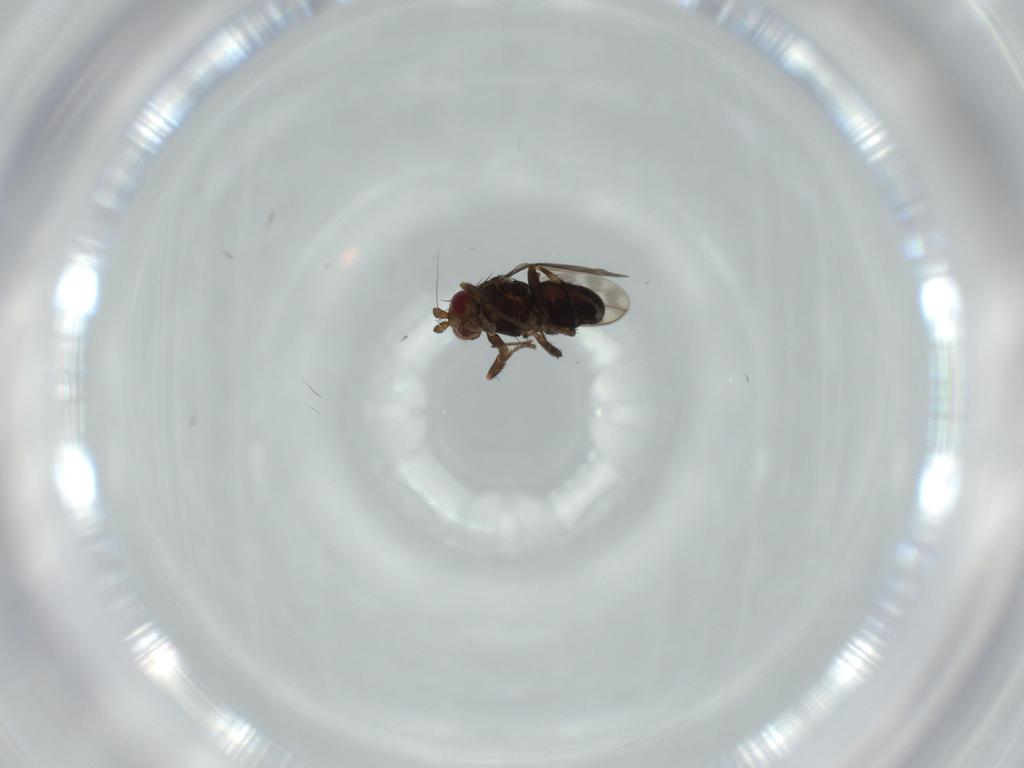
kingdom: Animalia
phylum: Arthropoda
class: Insecta
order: Diptera
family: Sphaeroceridae
